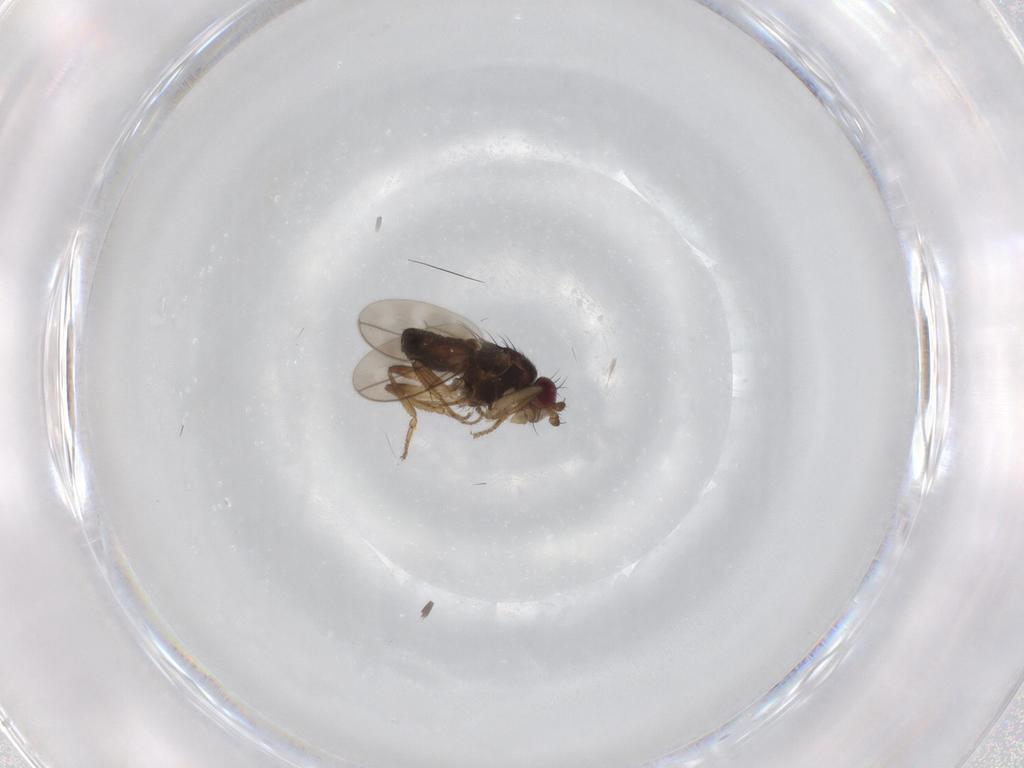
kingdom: Animalia
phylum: Arthropoda
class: Insecta
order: Diptera
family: Sphaeroceridae
